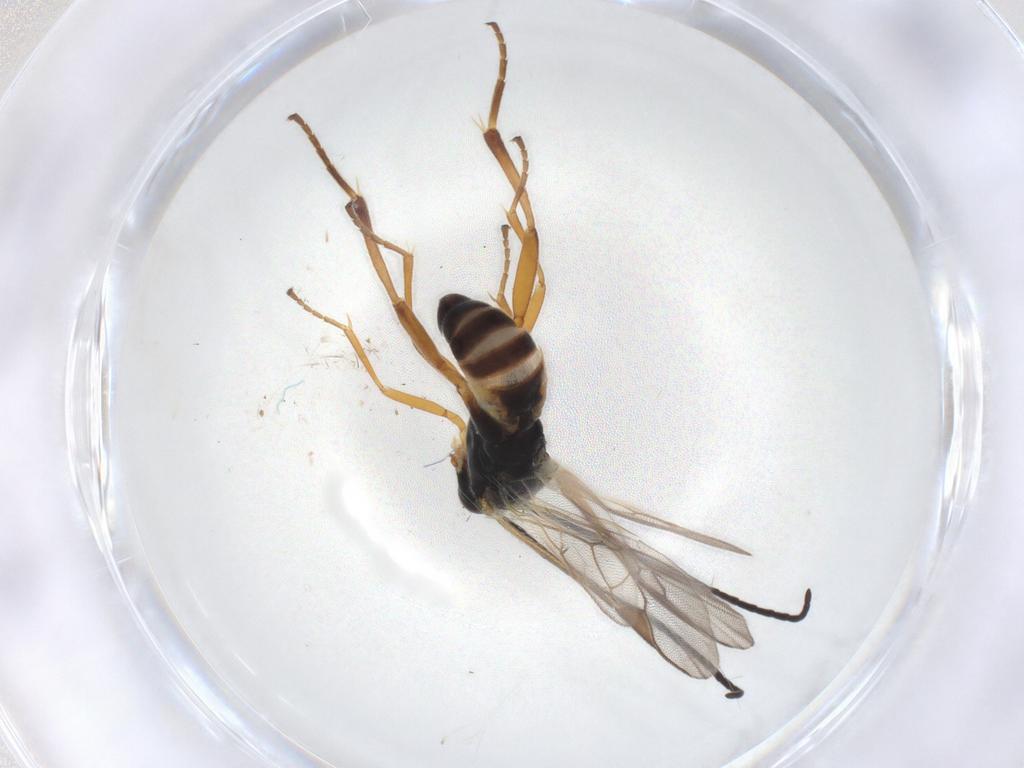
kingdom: Animalia
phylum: Arthropoda
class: Insecta
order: Hymenoptera
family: Braconidae
